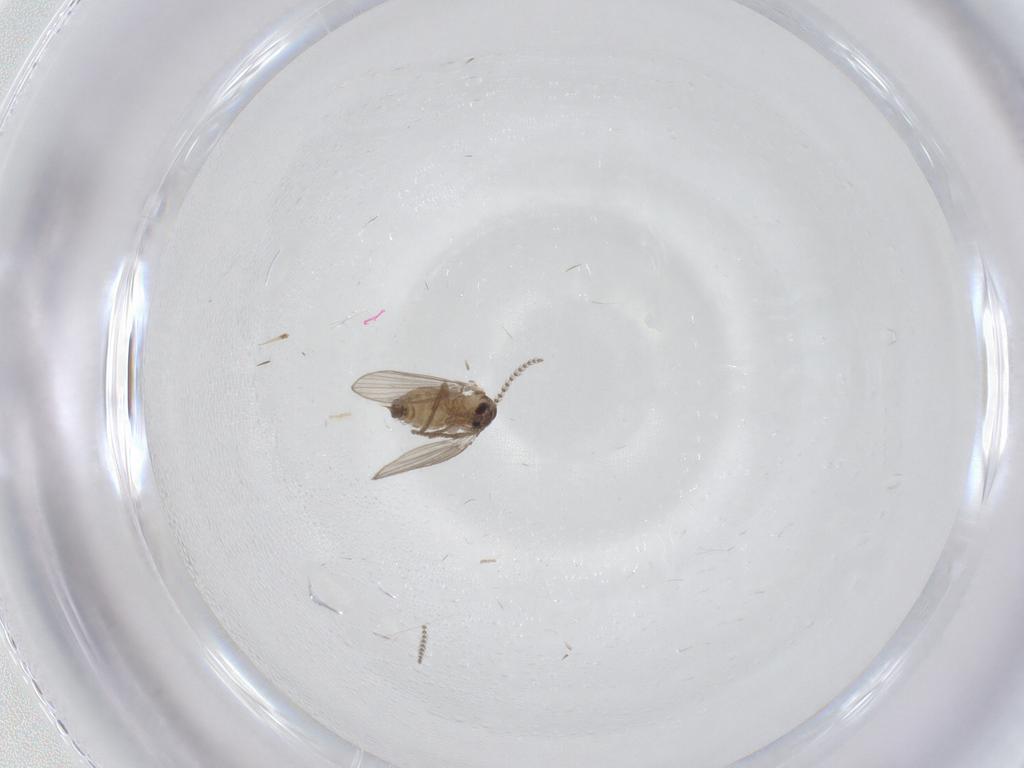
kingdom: Animalia
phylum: Arthropoda
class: Insecta
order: Diptera
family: Psychodidae
